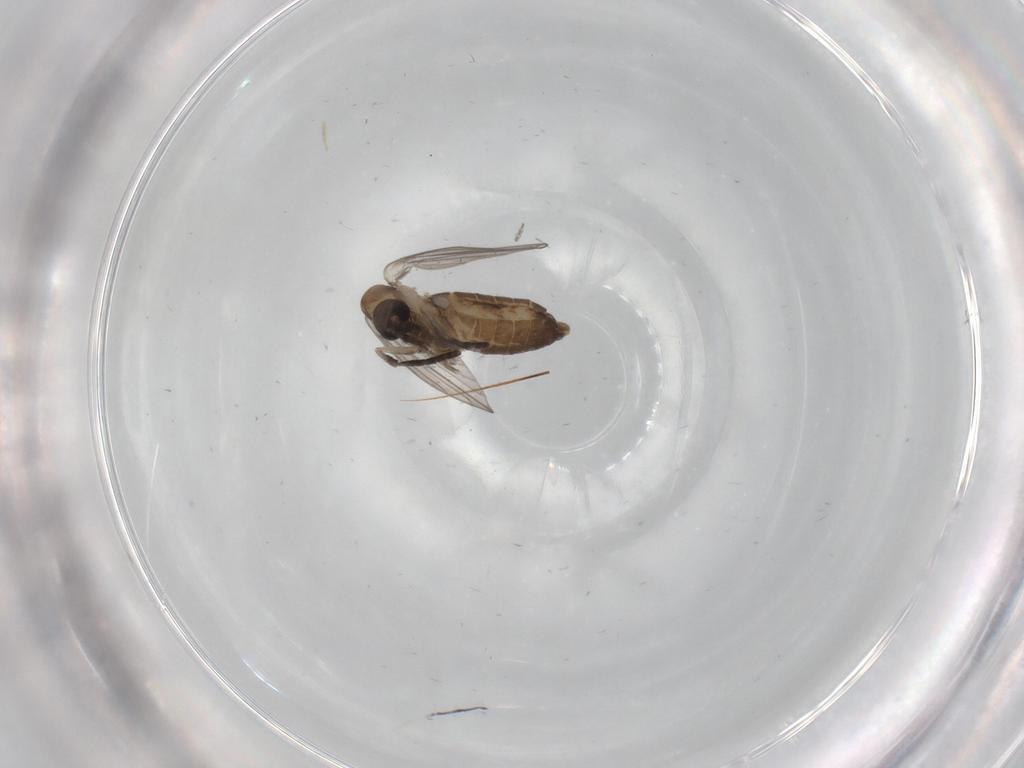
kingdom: Animalia
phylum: Arthropoda
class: Insecta
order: Diptera
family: Psychodidae
